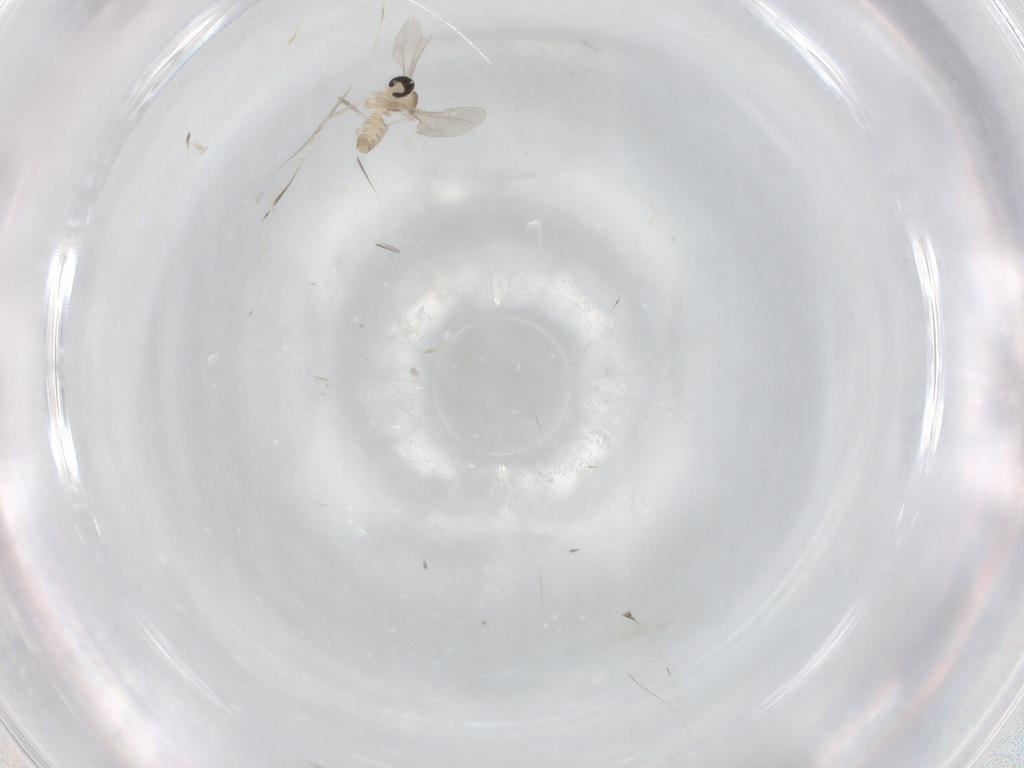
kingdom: Animalia
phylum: Arthropoda
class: Insecta
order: Diptera
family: Cecidomyiidae
